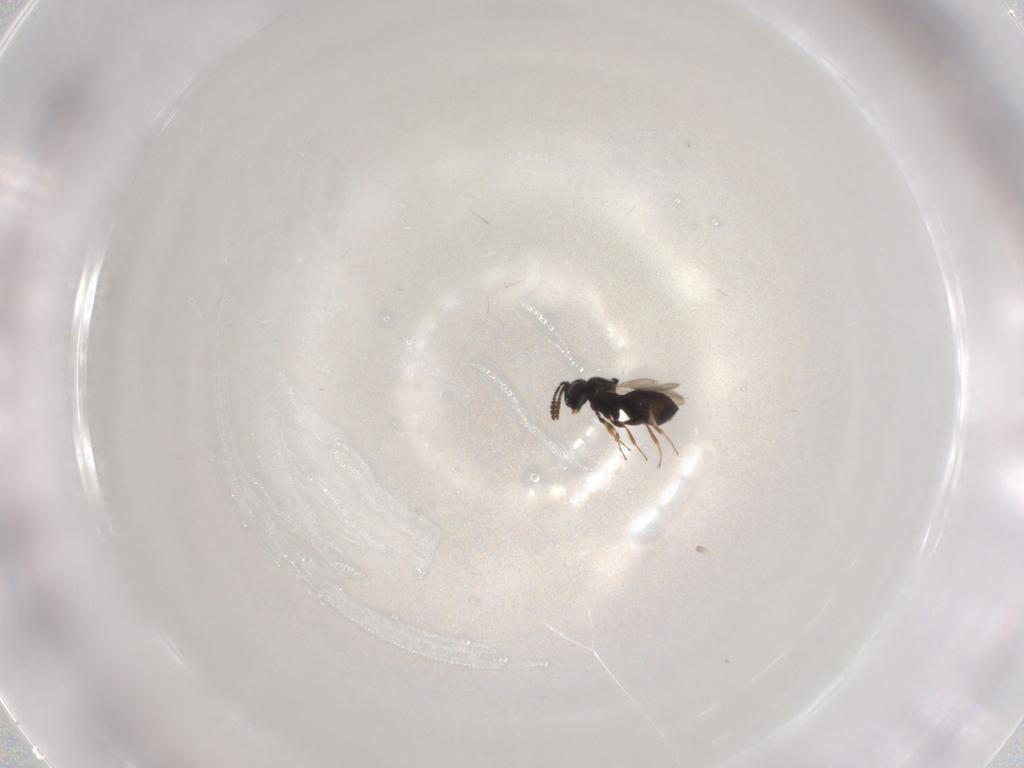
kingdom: Animalia
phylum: Arthropoda
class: Insecta
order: Hymenoptera
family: Scelionidae
